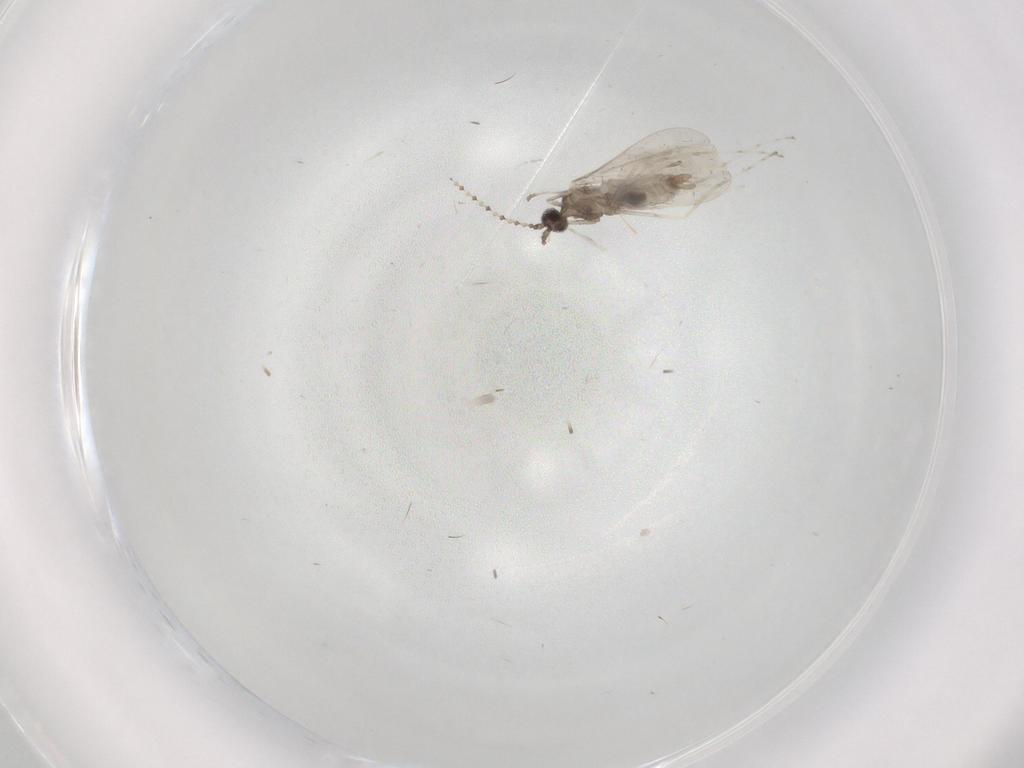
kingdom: Animalia
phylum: Arthropoda
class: Insecta
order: Diptera
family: Cecidomyiidae
